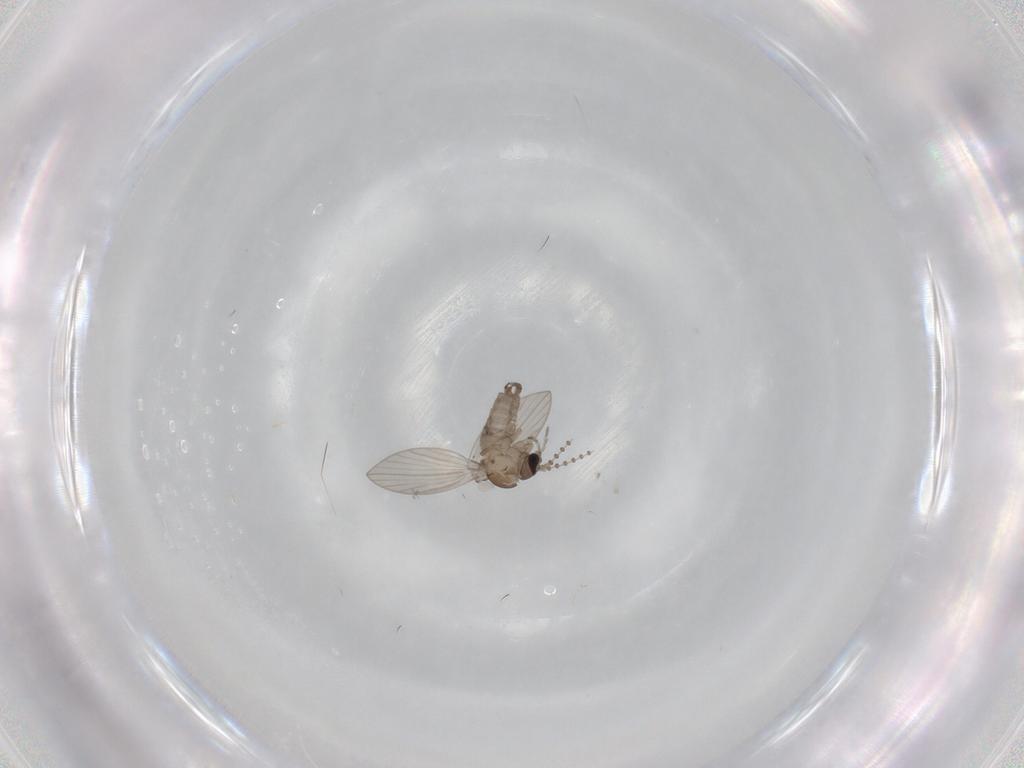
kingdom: Animalia
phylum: Arthropoda
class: Insecta
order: Diptera
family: Psychodidae
